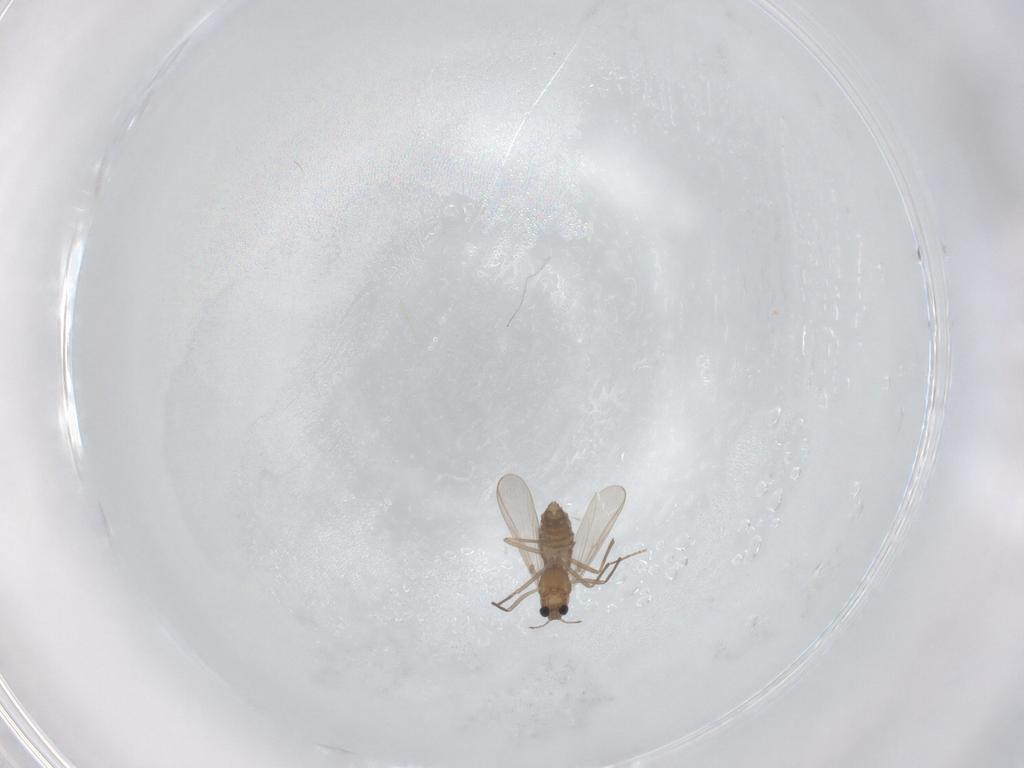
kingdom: Animalia
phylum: Arthropoda
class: Insecta
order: Diptera
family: Chironomidae
